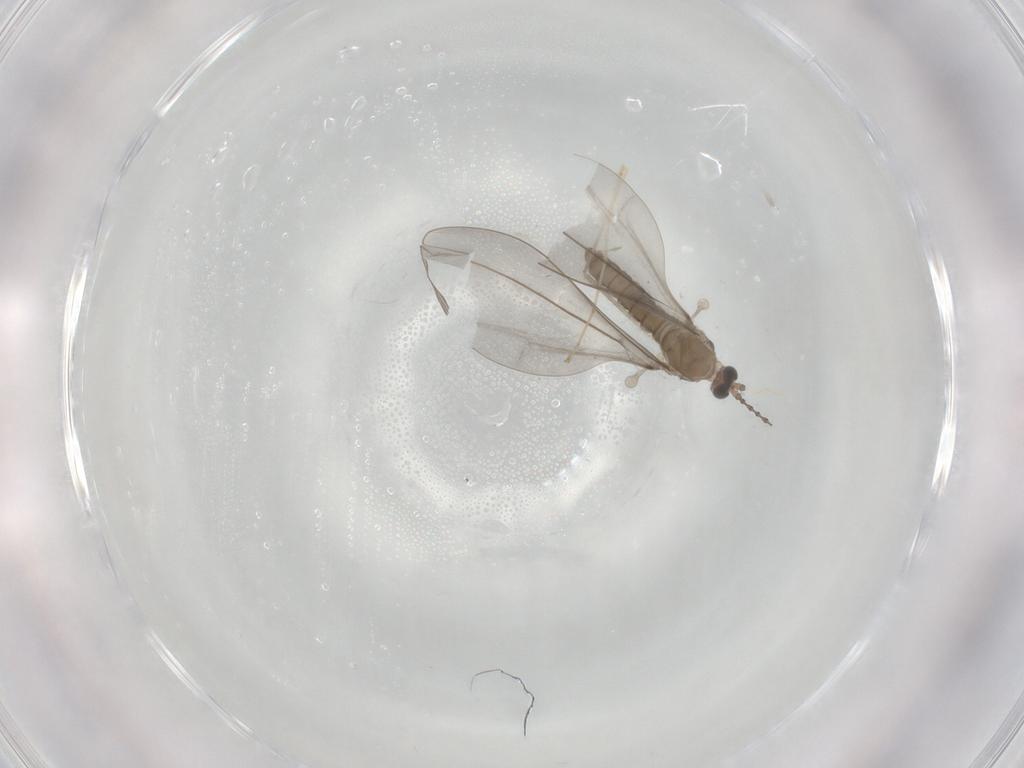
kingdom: Animalia
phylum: Arthropoda
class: Insecta
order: Diptera
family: Cecidomyiidae
